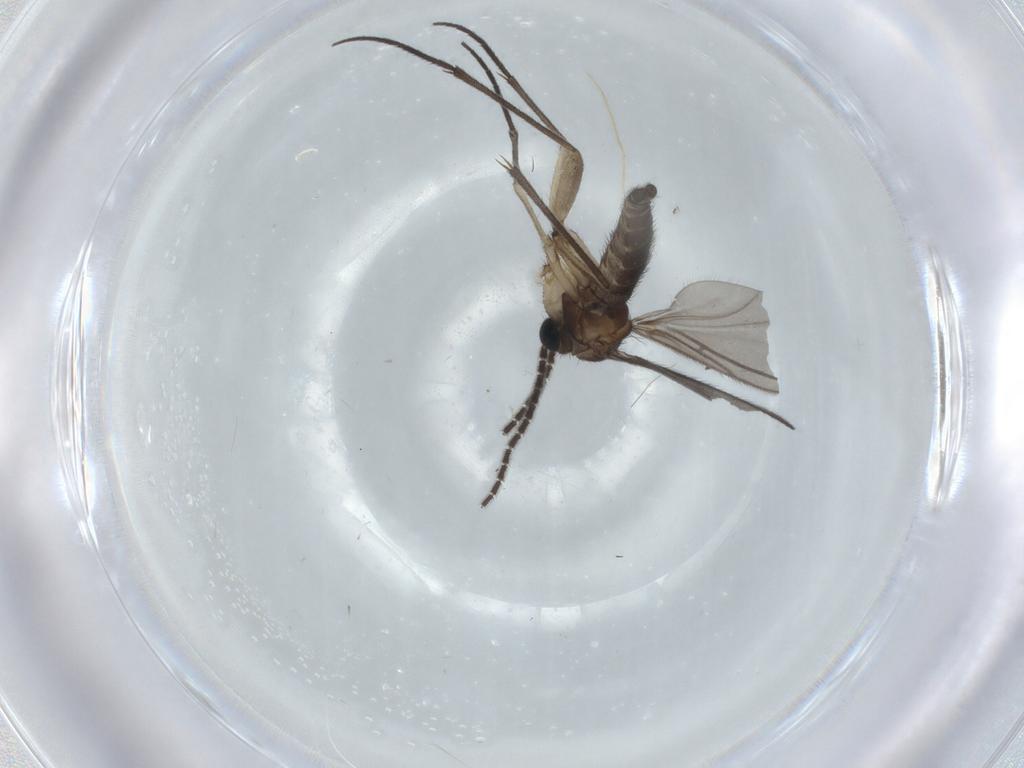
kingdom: Animalia
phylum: Arthropoda
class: Insecta
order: Diptera
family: Sciaridae
